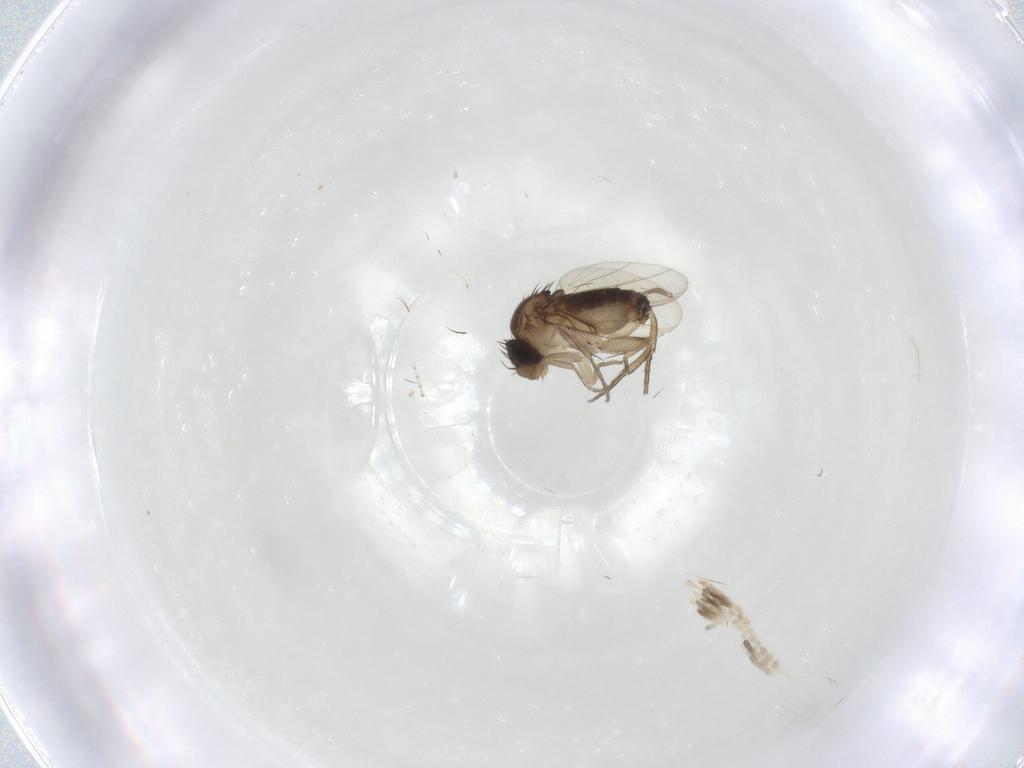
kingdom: Animalia
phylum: Arthropoda
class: Insecta
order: Diptera
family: Cecidomyiidae
